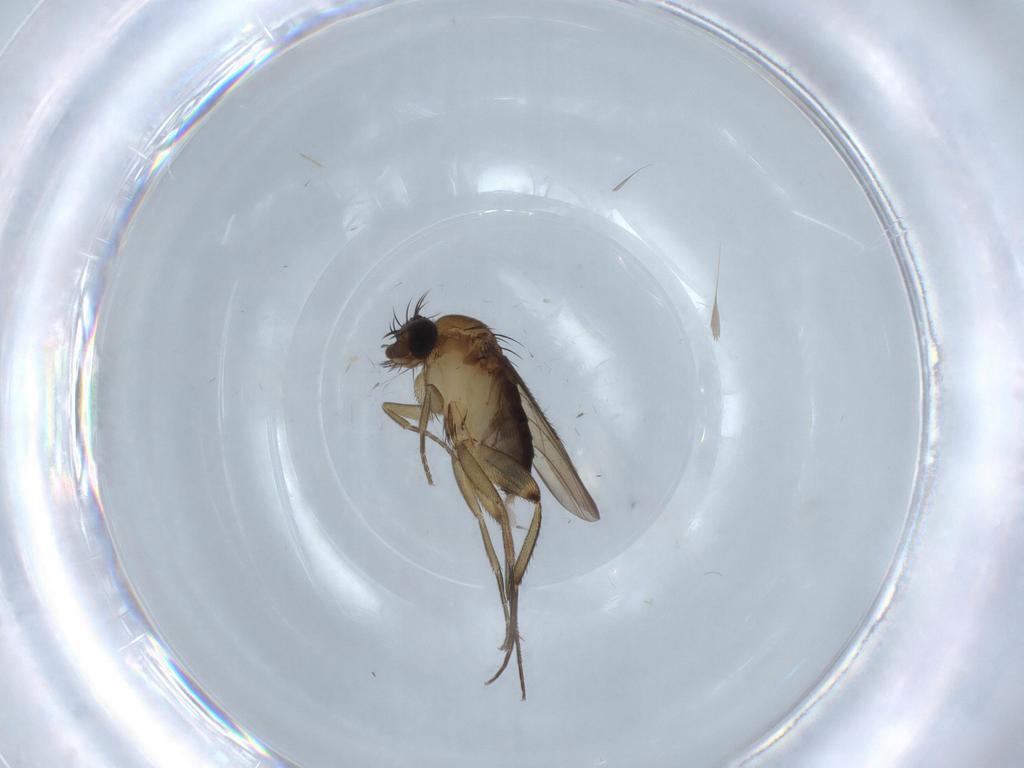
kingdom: Animalia
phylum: Arthropoda
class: Insecta
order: Diptera
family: Phoridae
